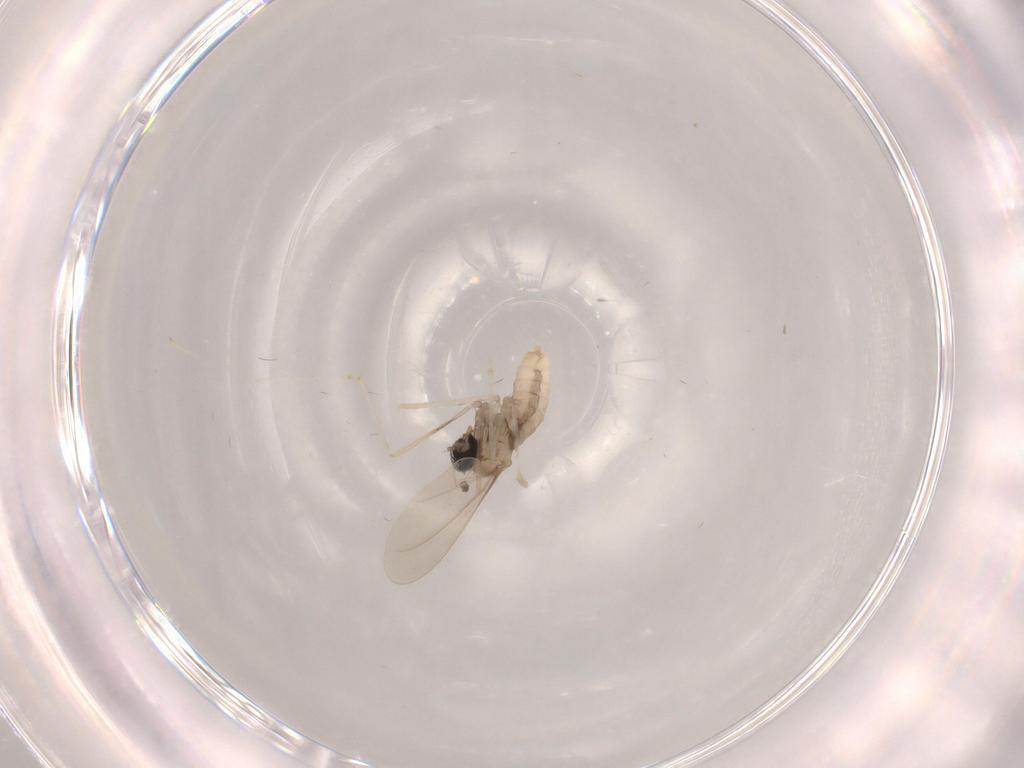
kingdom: Animalia
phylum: Arthropoda
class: Insecta
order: Diptera
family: Cecidomyiidae
